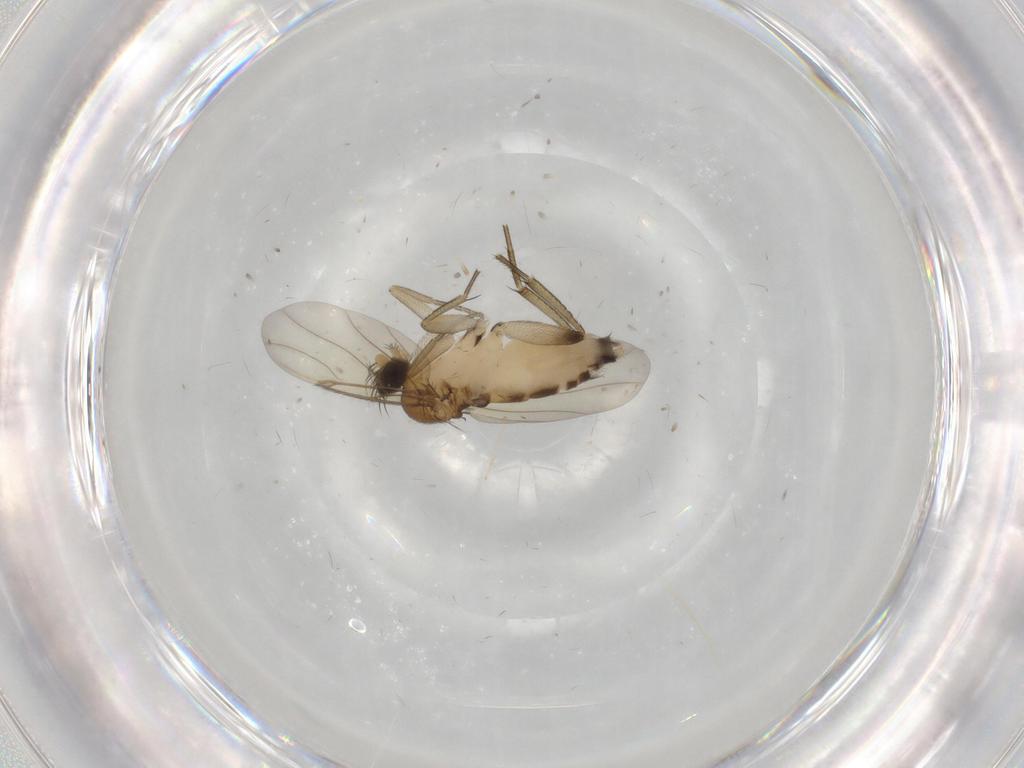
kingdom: Animalia
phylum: Arthropoda
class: Insecta
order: Diptera
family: Phoridae
